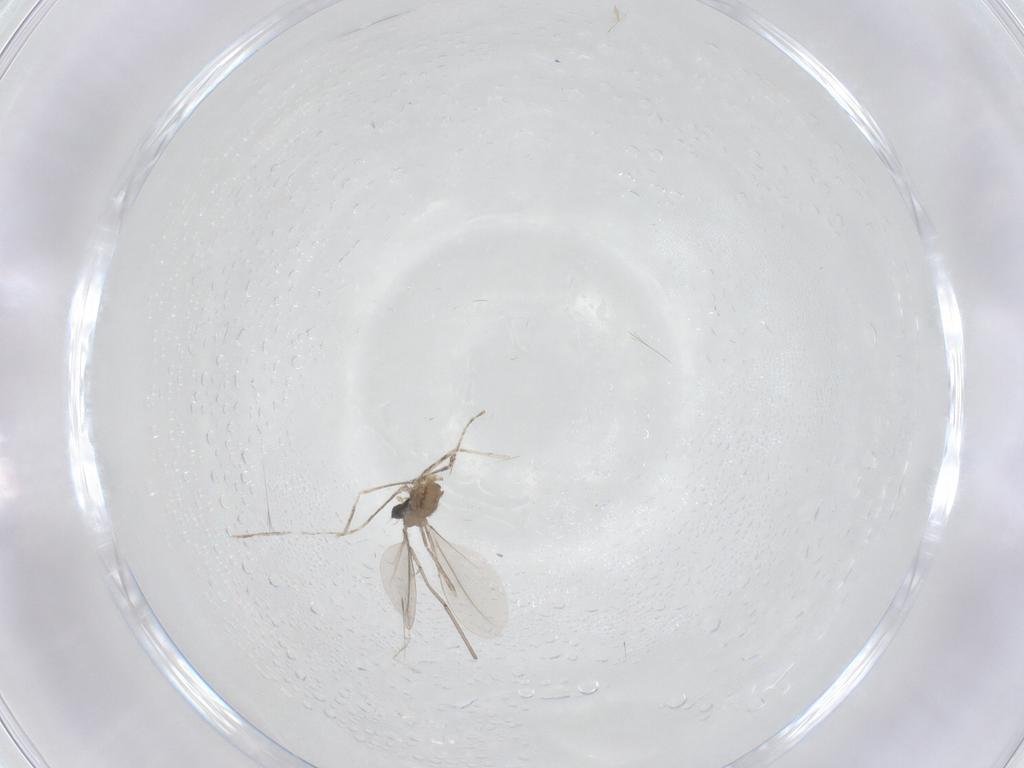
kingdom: Animalia
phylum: Arthropoda
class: Insecta
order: Diptera
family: Cecidomyiidae
